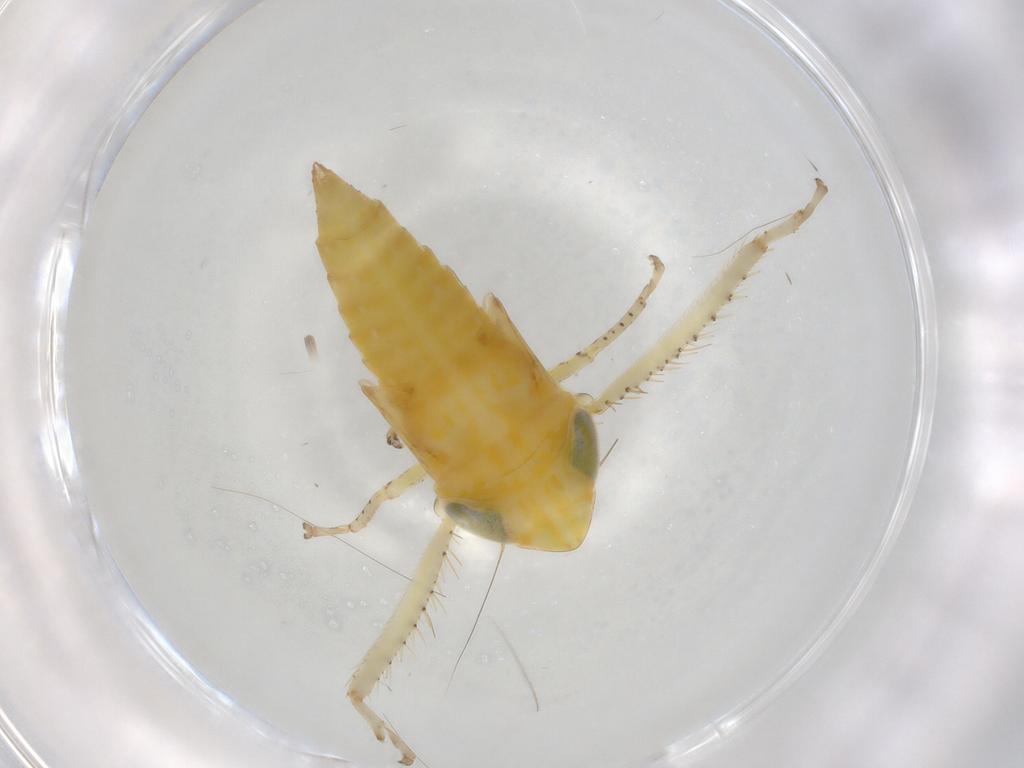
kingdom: Animalia
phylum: Arthropoda
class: Insecta
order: Hemiptera
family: Cicadellidae
